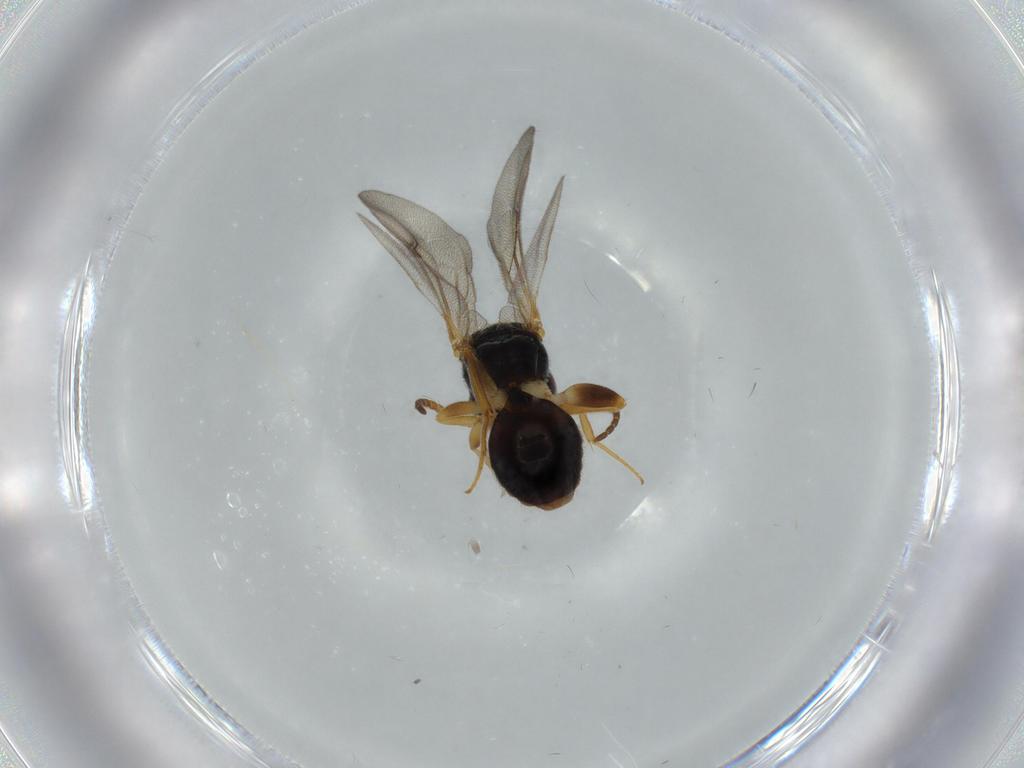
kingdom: Animalia
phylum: Arthropoda
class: Insecta
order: Hymenoptera
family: Bethylidae
